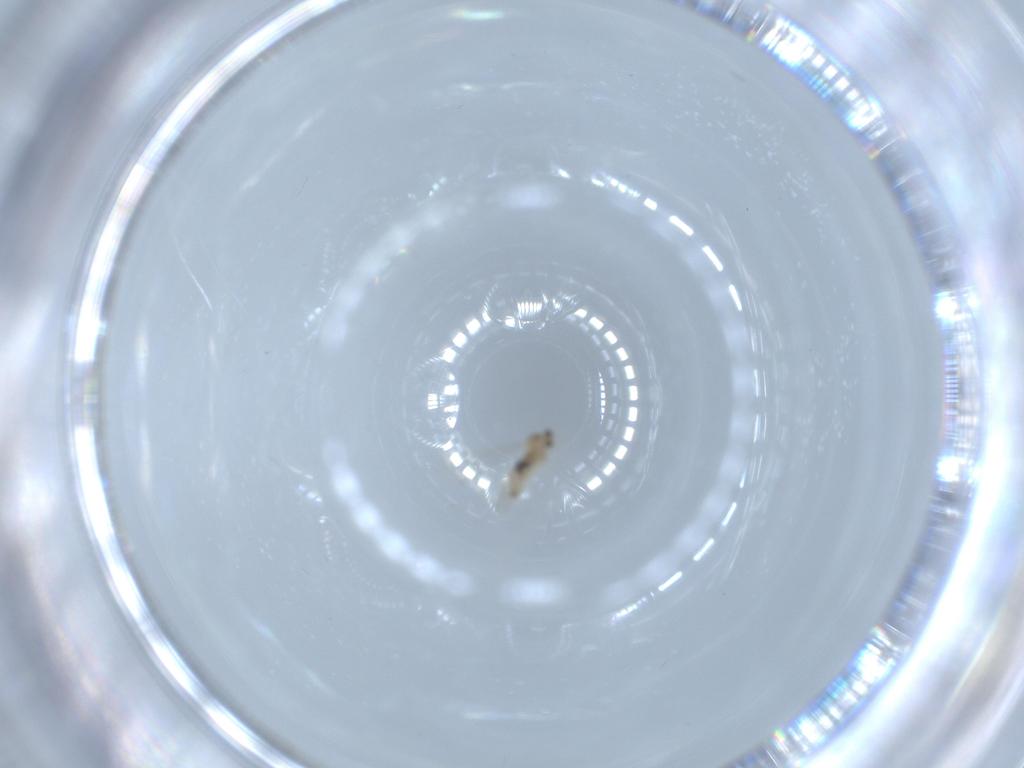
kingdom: Animalia
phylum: Arthropoda
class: Insecta
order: Diptera
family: Cecidomyiidae
